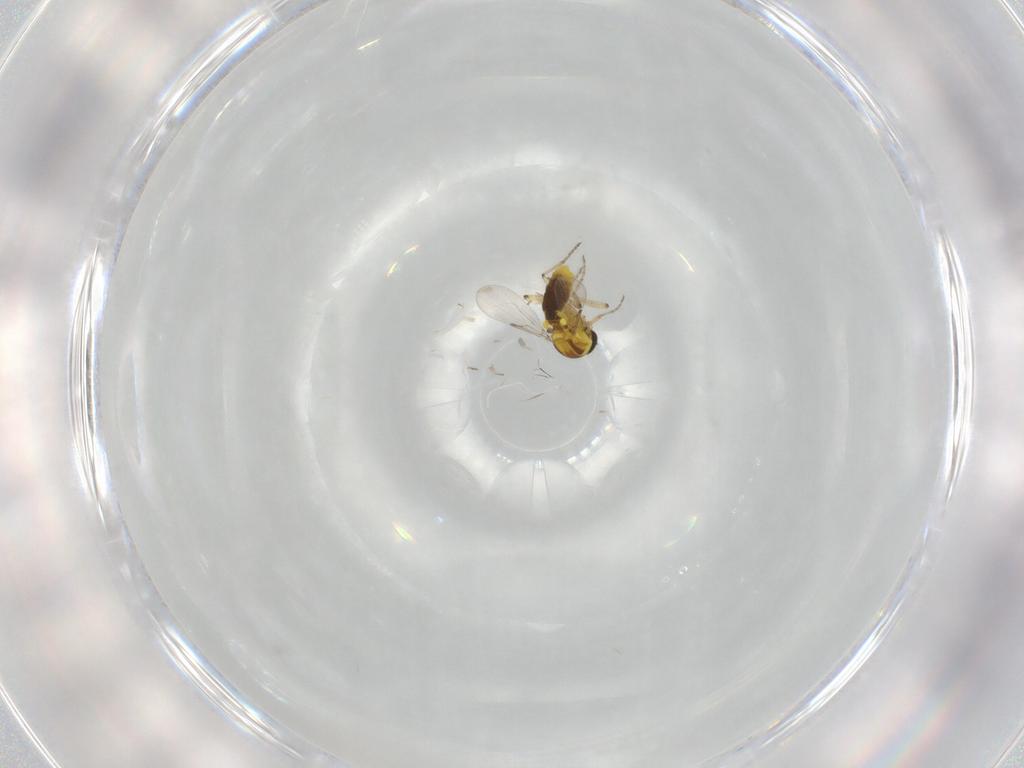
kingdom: Animalia
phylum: Arthropoda
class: Insecta
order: Diptera
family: Ceratopogonidae
